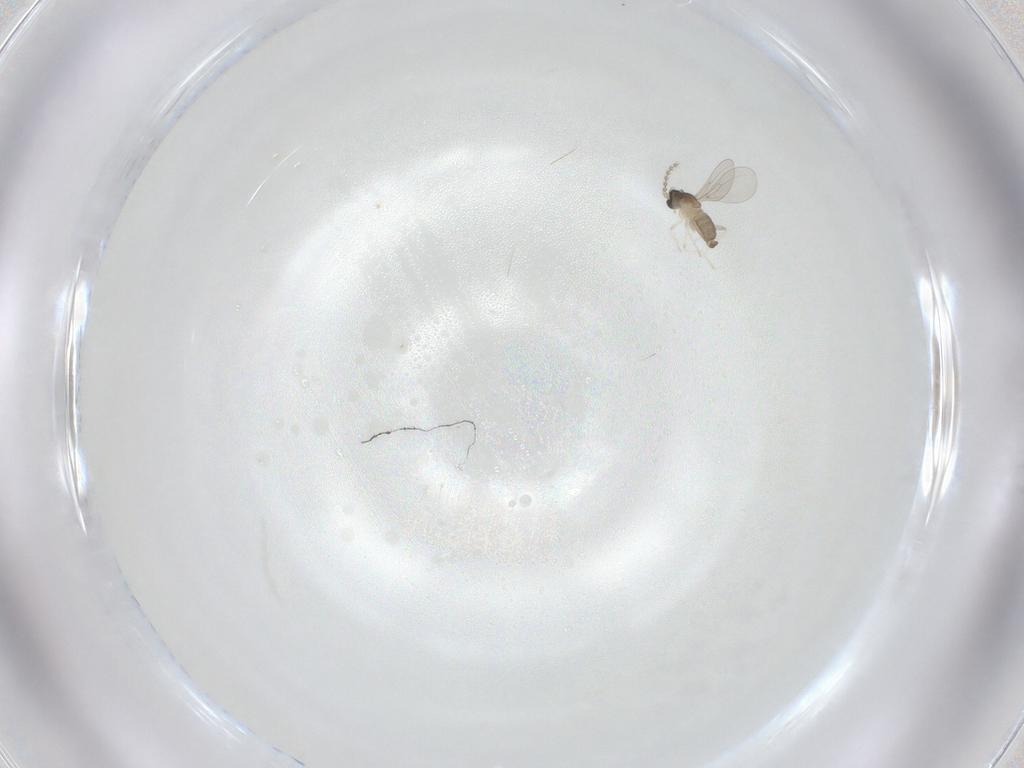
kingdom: Animalia
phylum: Arthropoda
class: Insecta
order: Diptera
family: Cecidomyiidae
